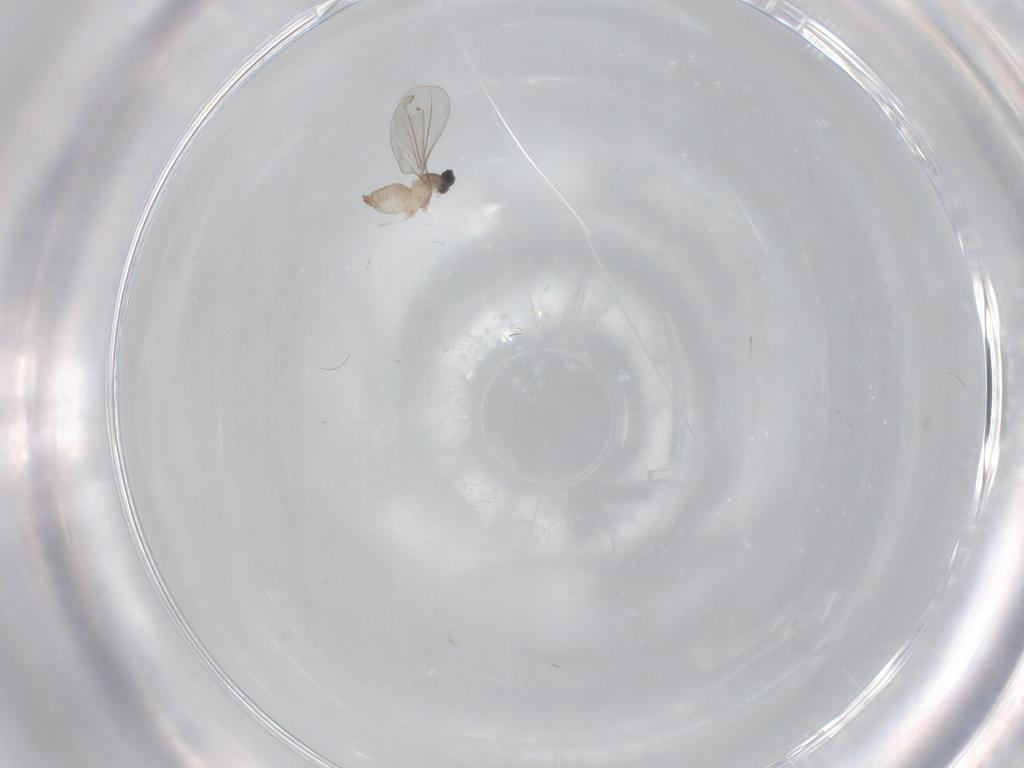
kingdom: Animalia
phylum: Arthropoda
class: Insecta
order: Diptera
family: Cecidomyiidae
